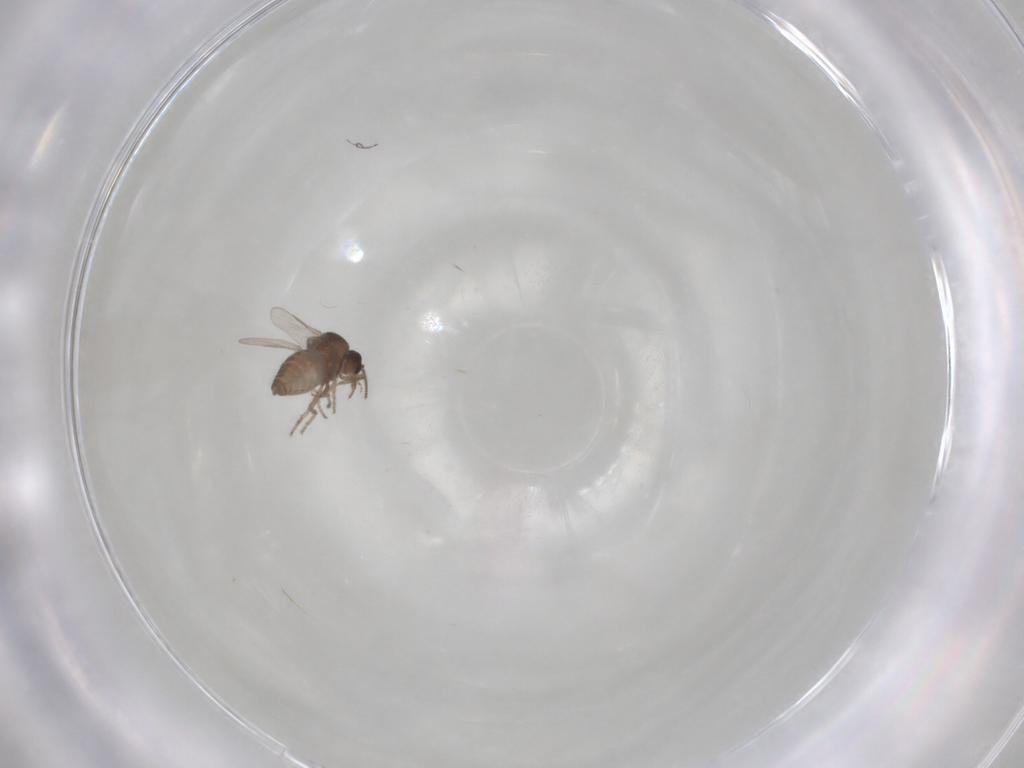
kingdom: Animalia
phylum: Arthropoda
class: Insecta
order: Diptera
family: Ceratopogonidae
